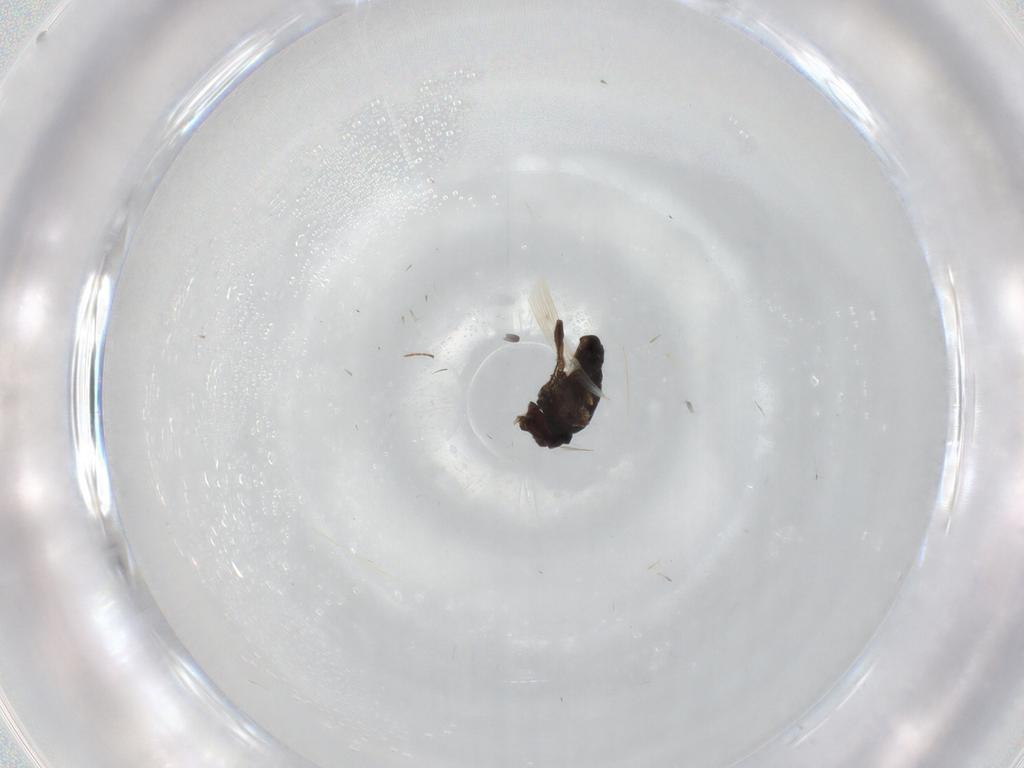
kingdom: Animalia
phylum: Arthropoda
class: Insecta
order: Diptera
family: Pipunculidae
